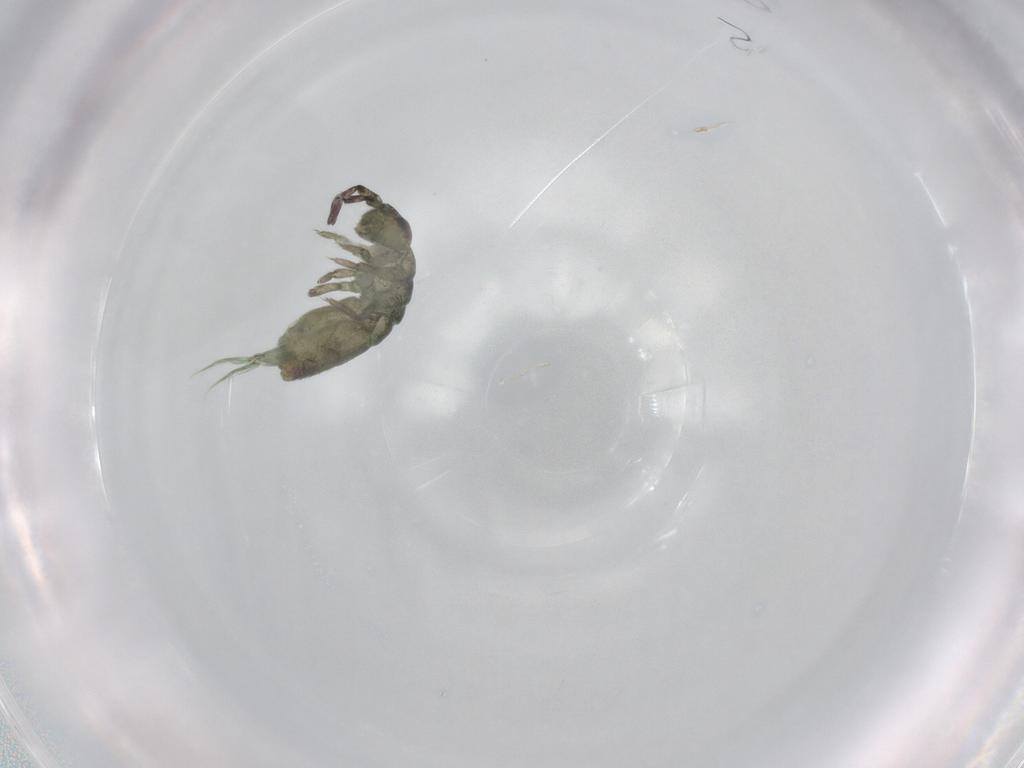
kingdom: Animalia
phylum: Arthropoda
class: Collembola
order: Entomobryomorpha
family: Isotomidae
